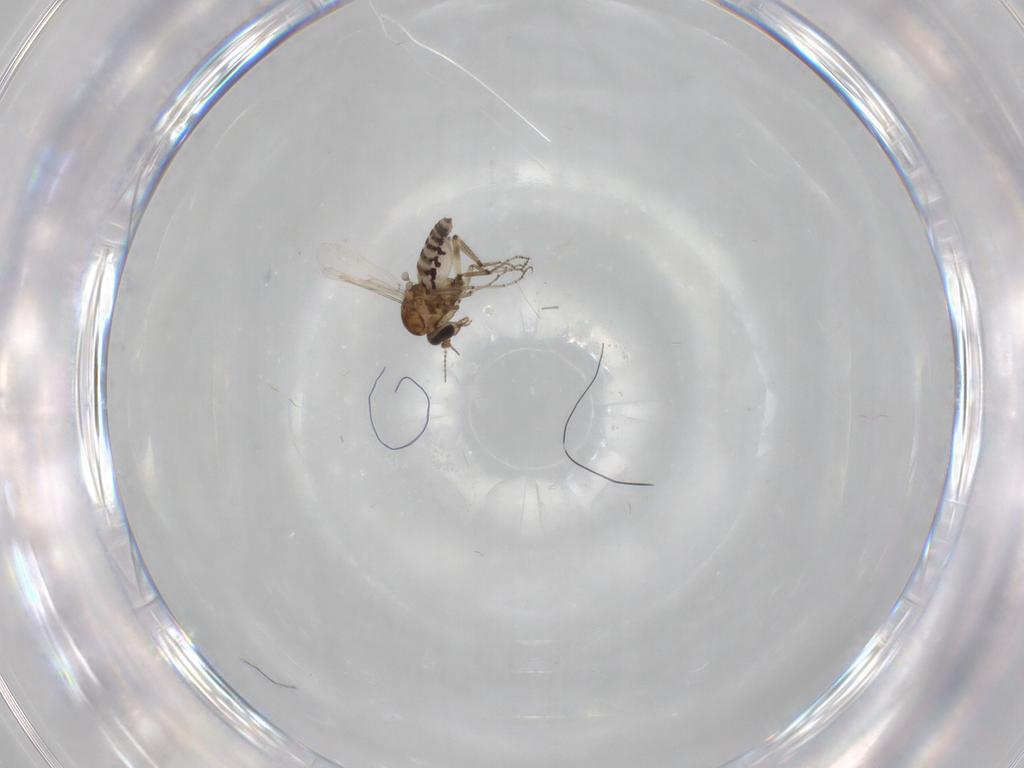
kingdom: Animalia
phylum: Arthropoda
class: Insecta
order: Diptera
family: Ceratopogonidae
